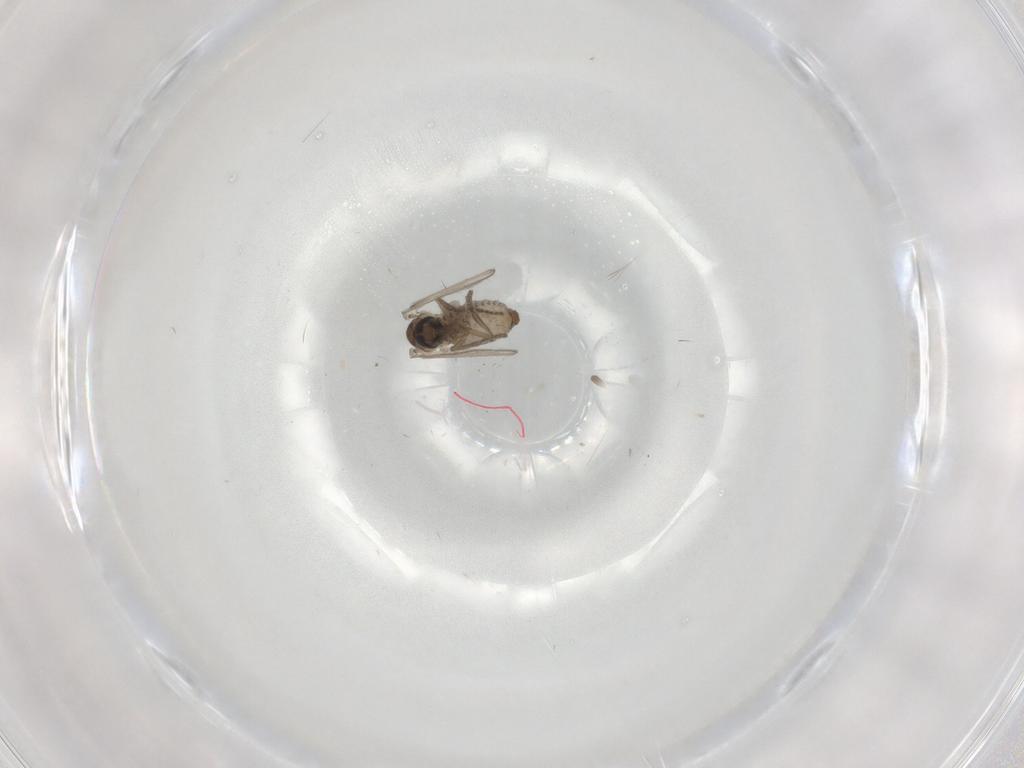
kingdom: Animalia
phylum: Arthropoda
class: Insecta
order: Diptera
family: Psychodidae
